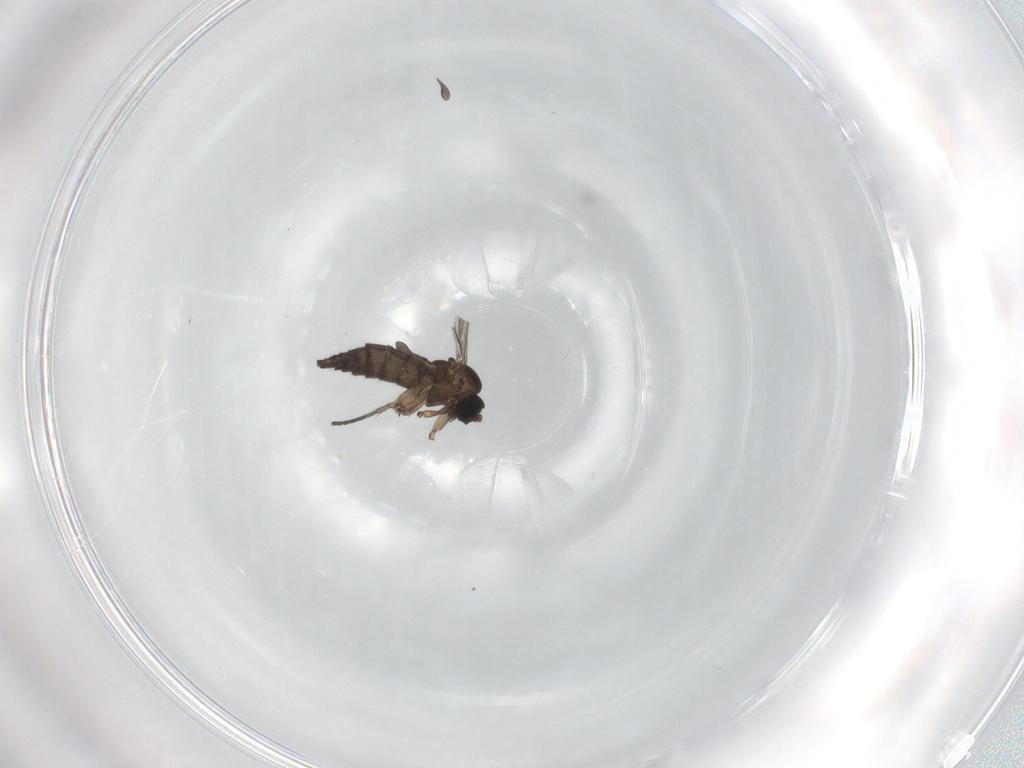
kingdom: Animalia
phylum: Arthropoda
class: Insecta
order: Diptera
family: Sciaridae
